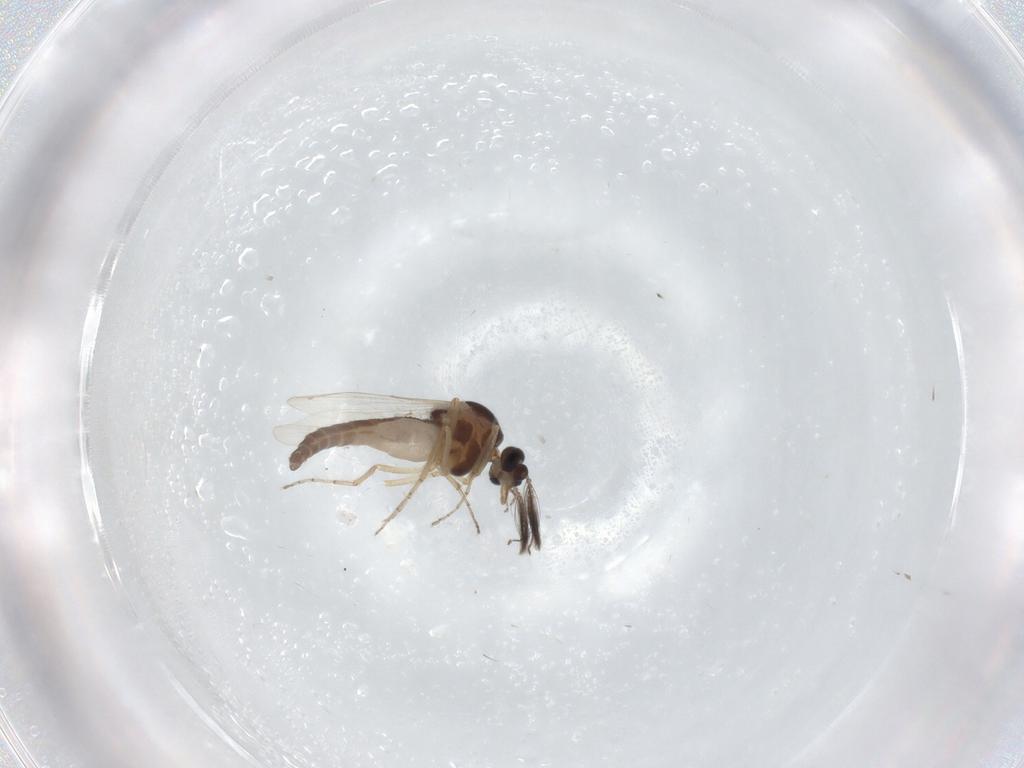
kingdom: Animalia
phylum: Arthropoda
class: Insecta
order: Diptera
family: Ceratopogonidae
